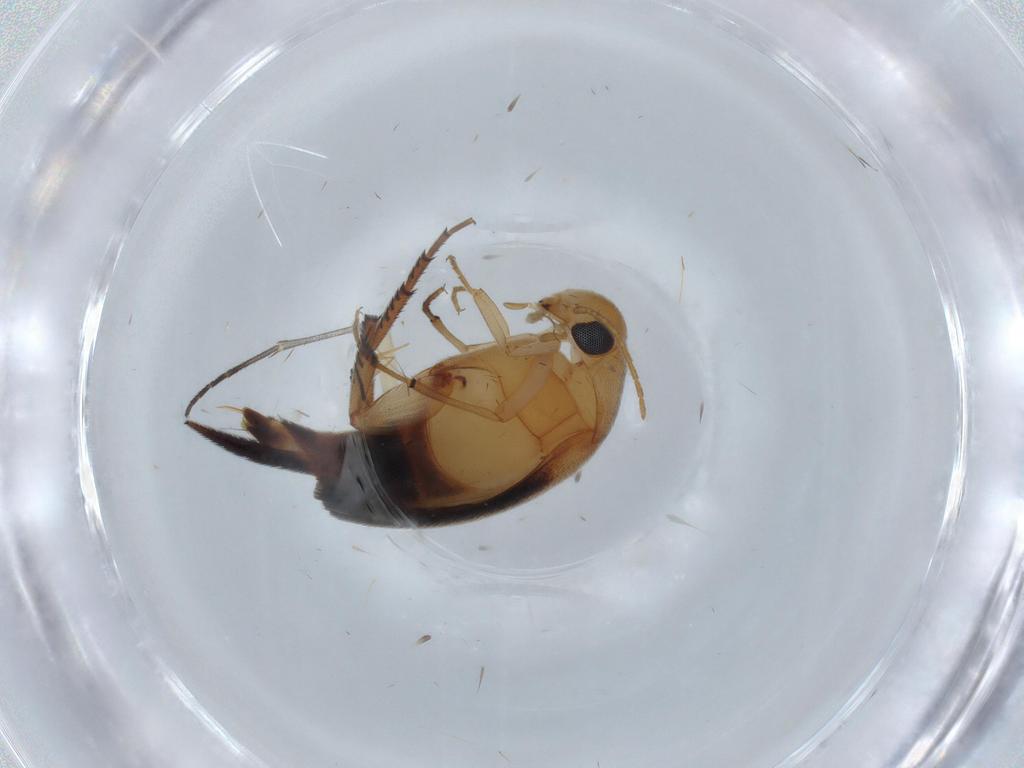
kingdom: Animalia
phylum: Arthropoda
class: Insecta
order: Coleoptera
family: Mordellidae
